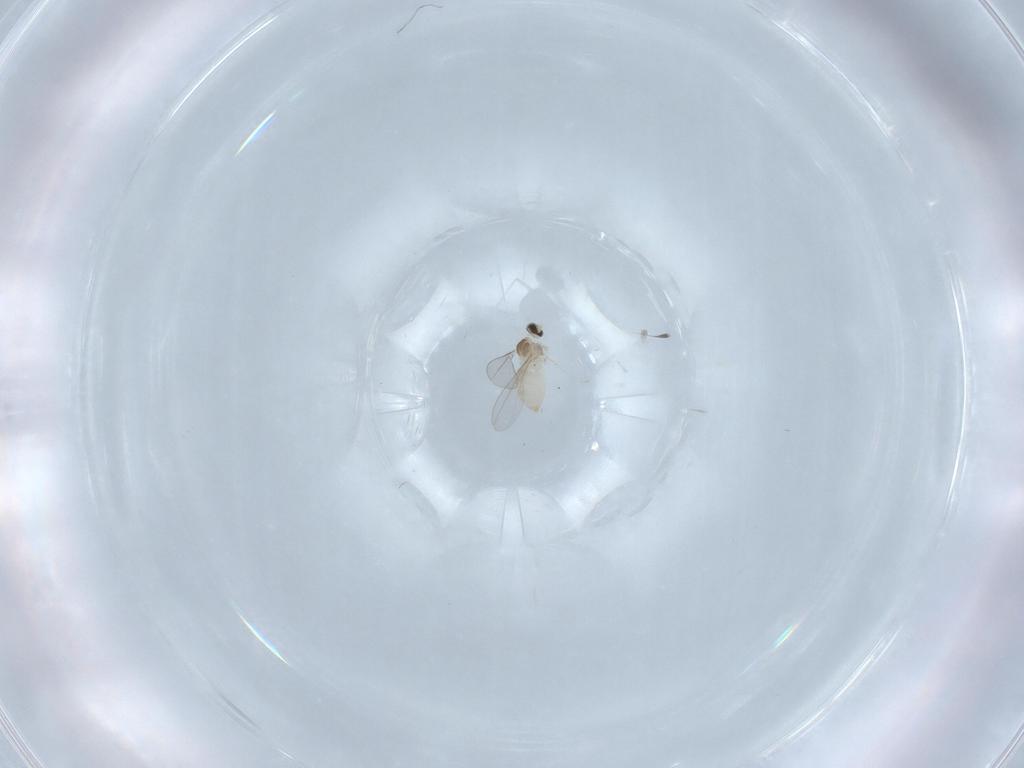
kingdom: Animalia
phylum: Arthropoda
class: Insecta
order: Diptera
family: Cecidomyiidae
